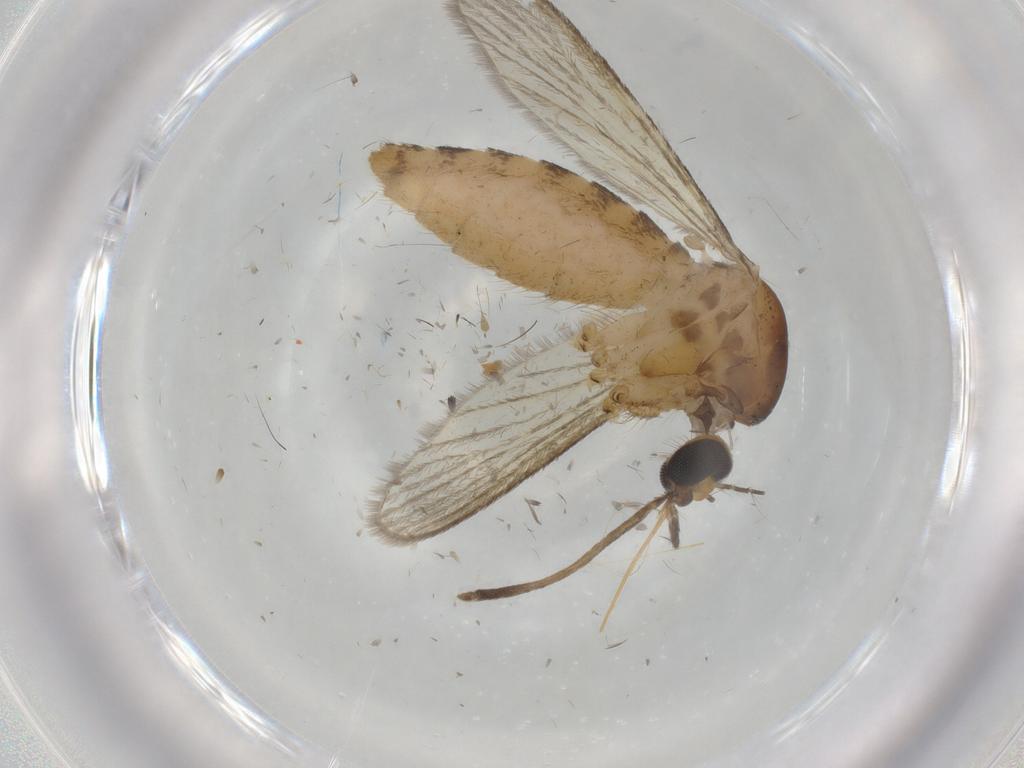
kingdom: Animalia
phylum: Arthropoda
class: Insecta
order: Diptera
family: Culicidae
